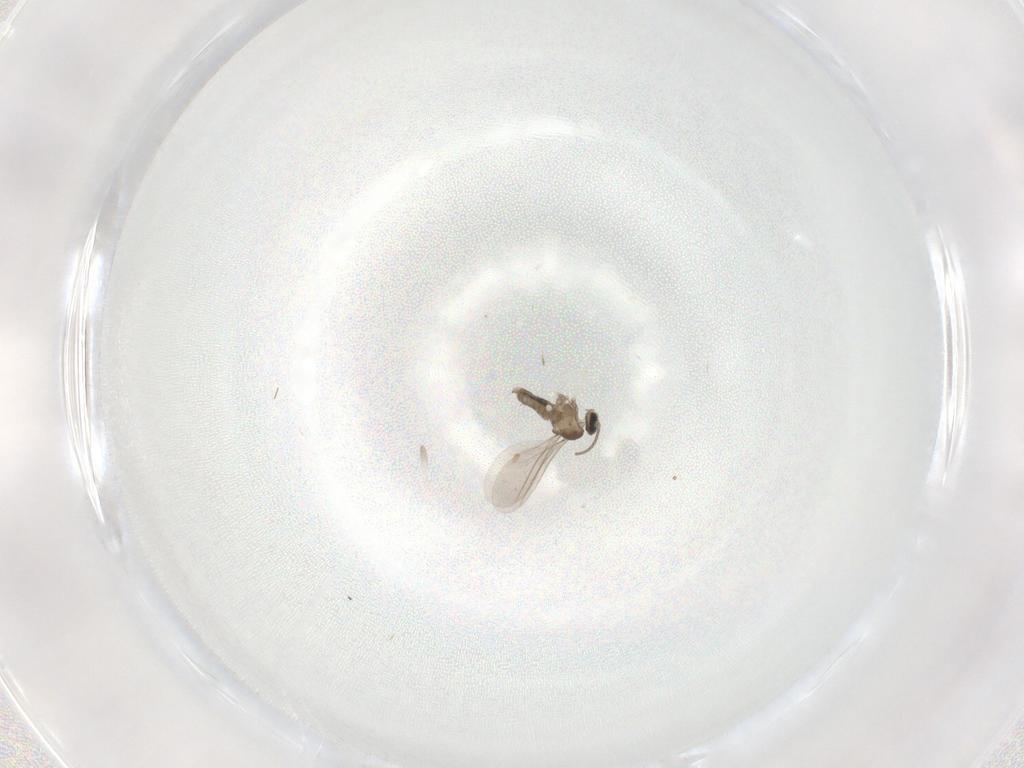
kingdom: Animalia
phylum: Arthropoda
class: Insecta
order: Diptera
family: Cecidomyiidae
